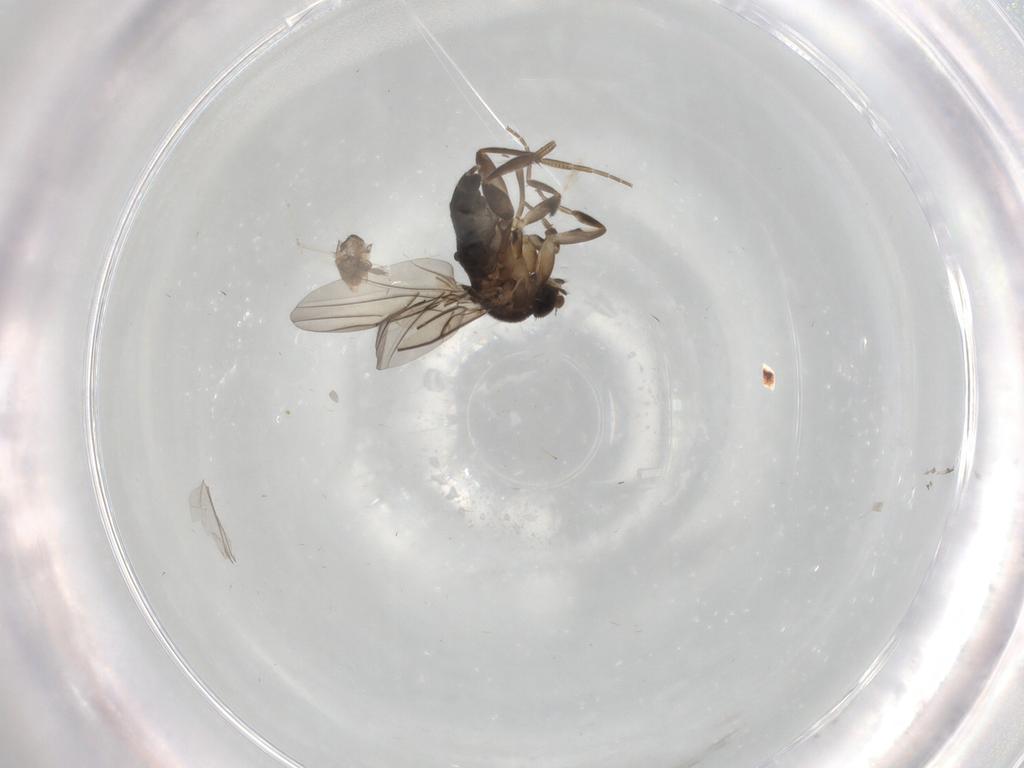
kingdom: Animalia
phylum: Arthropoda
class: Insecta
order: Diptera
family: Phoridae
